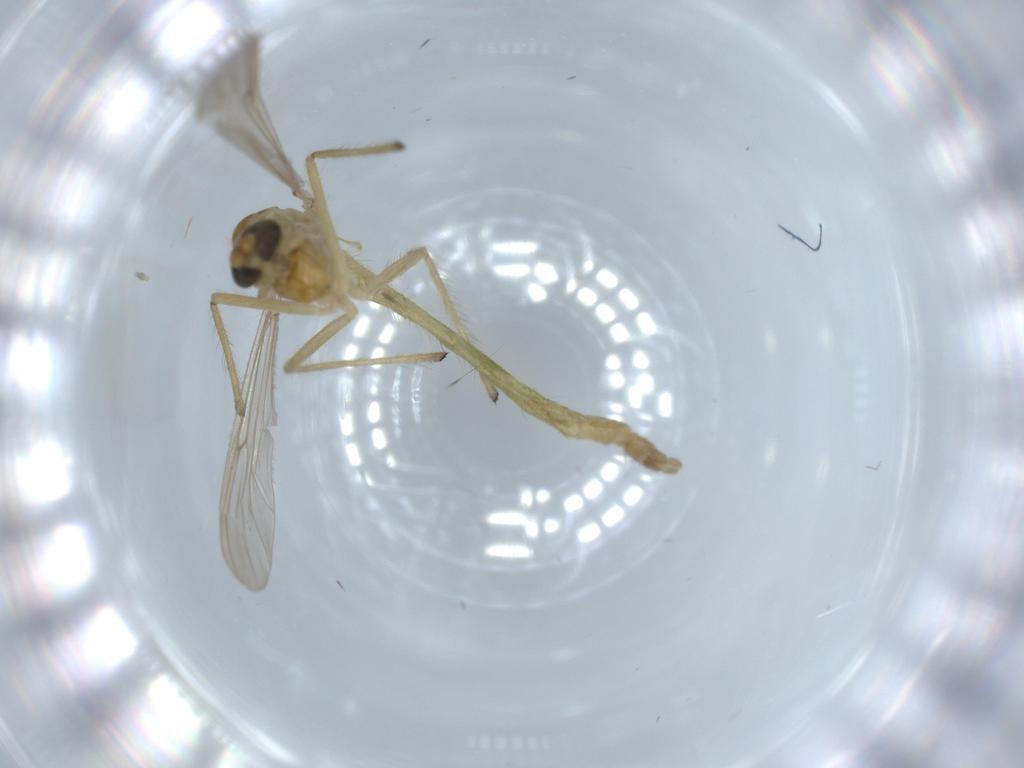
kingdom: Animalia
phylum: Arthropoda
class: Insecta
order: Diptera
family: Chironomidae
